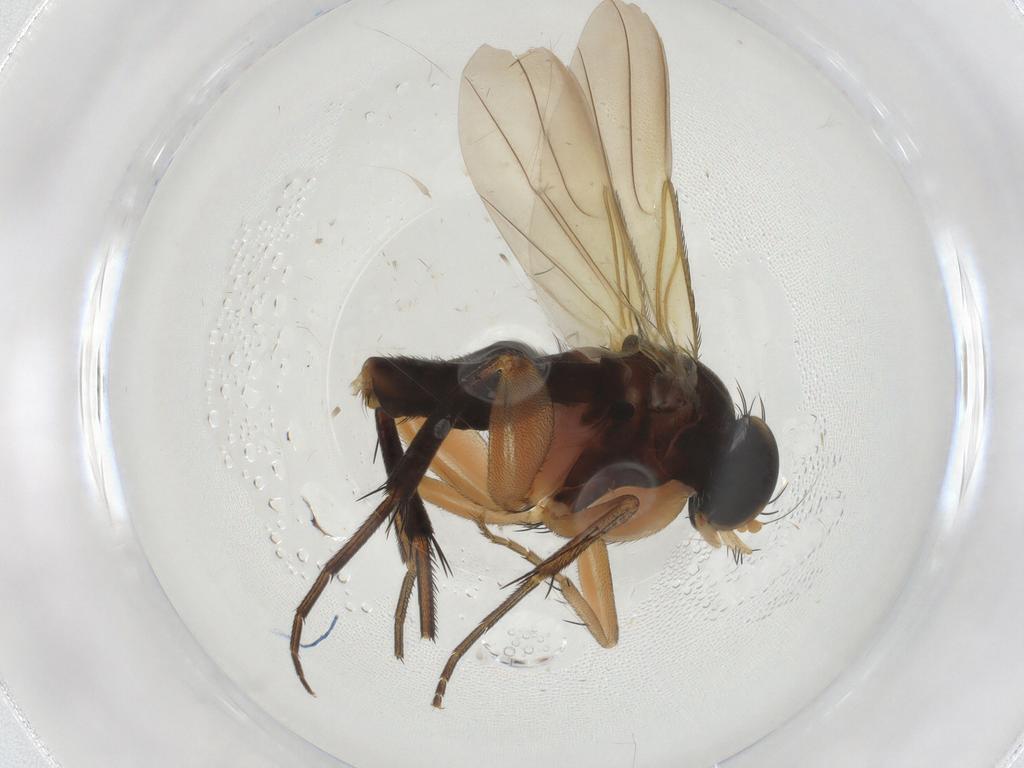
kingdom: Animalia
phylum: Arthropoda
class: Insecta
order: Diptera
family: Phoridae
